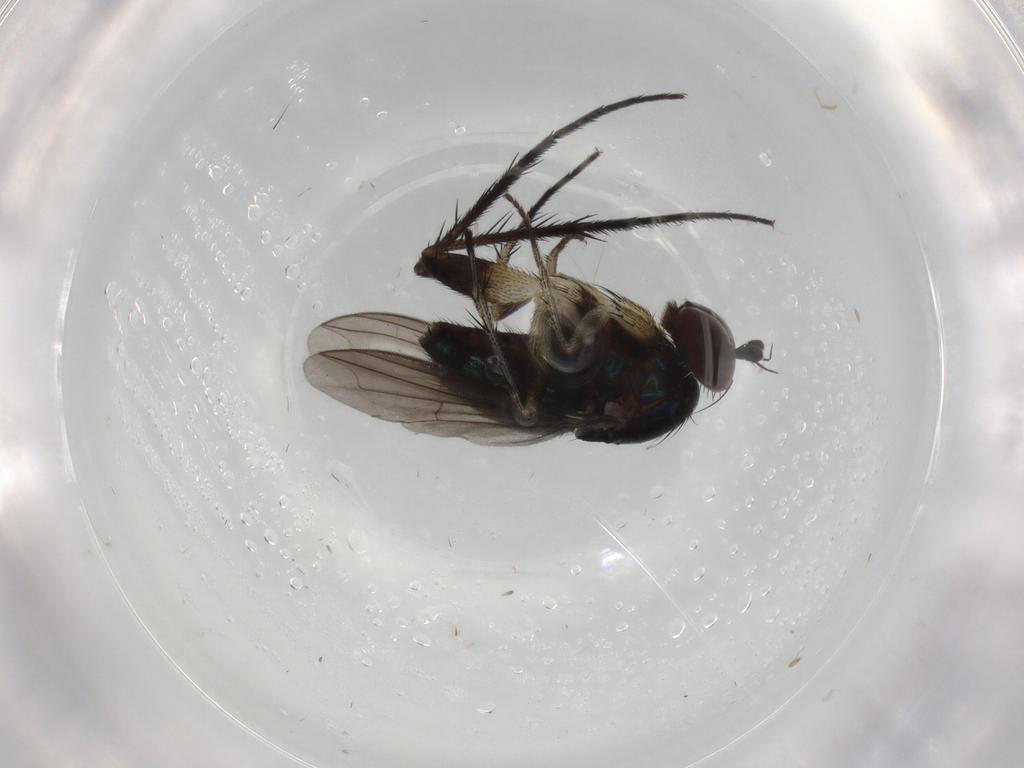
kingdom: Animalia
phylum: Arthropoda
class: Insecta
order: Diptera
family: Dolichopodidae
